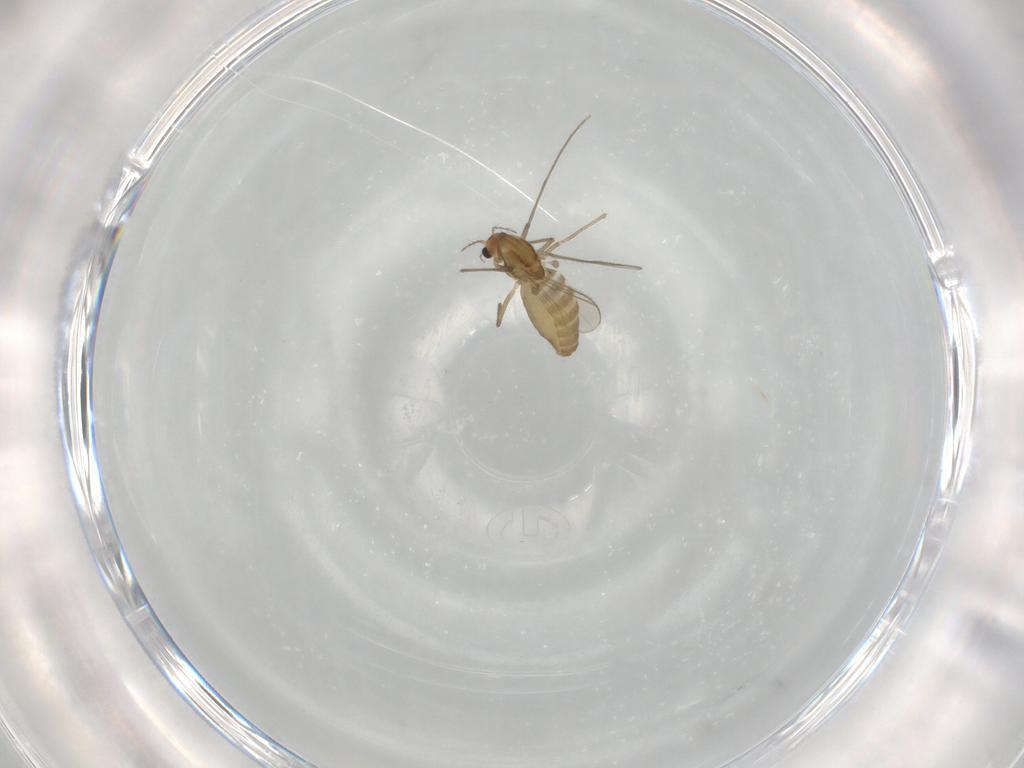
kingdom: Animalia
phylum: Arthropoda
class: Insecta
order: Diptera
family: Chironomidae
